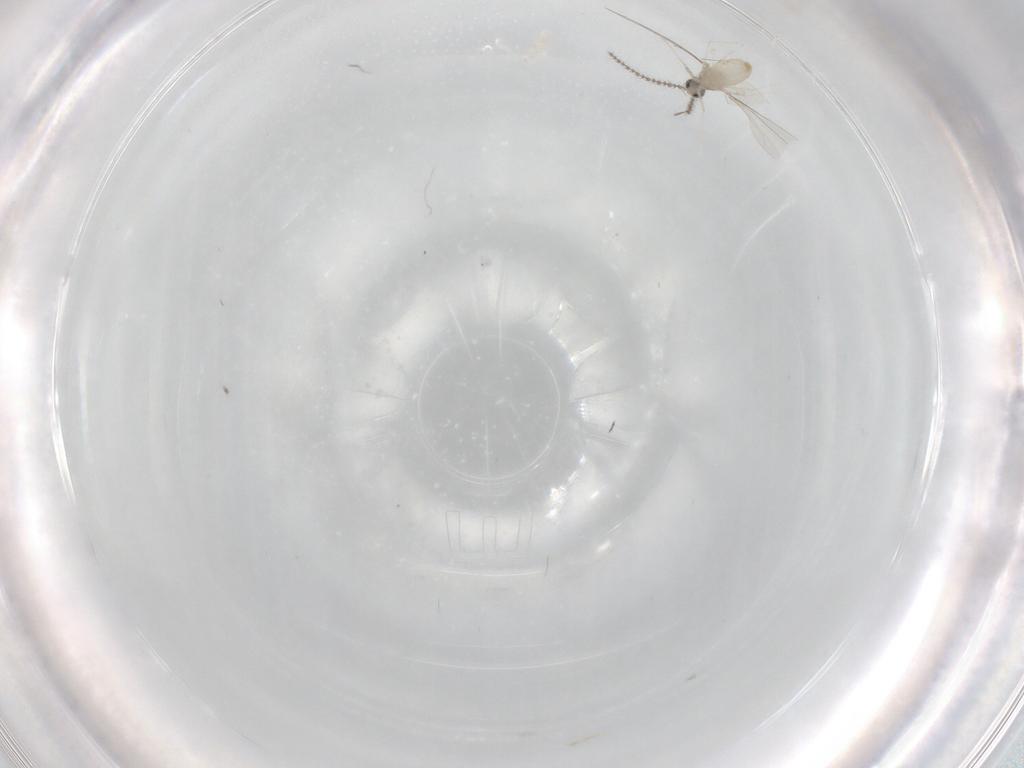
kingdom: Animalia
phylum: Arthropoda
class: Insecta
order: Diptera
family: Cecidomyiidae
